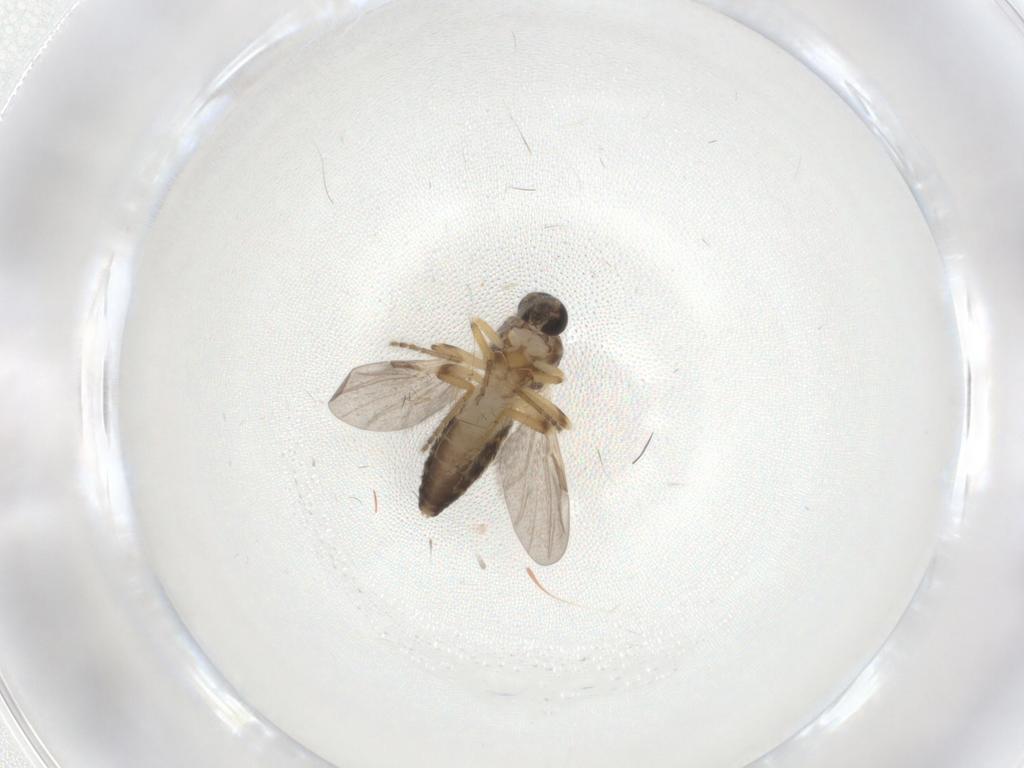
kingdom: Animalia
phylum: Arthropoda
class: Insecta
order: Diptera
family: Ceratopogonidae
